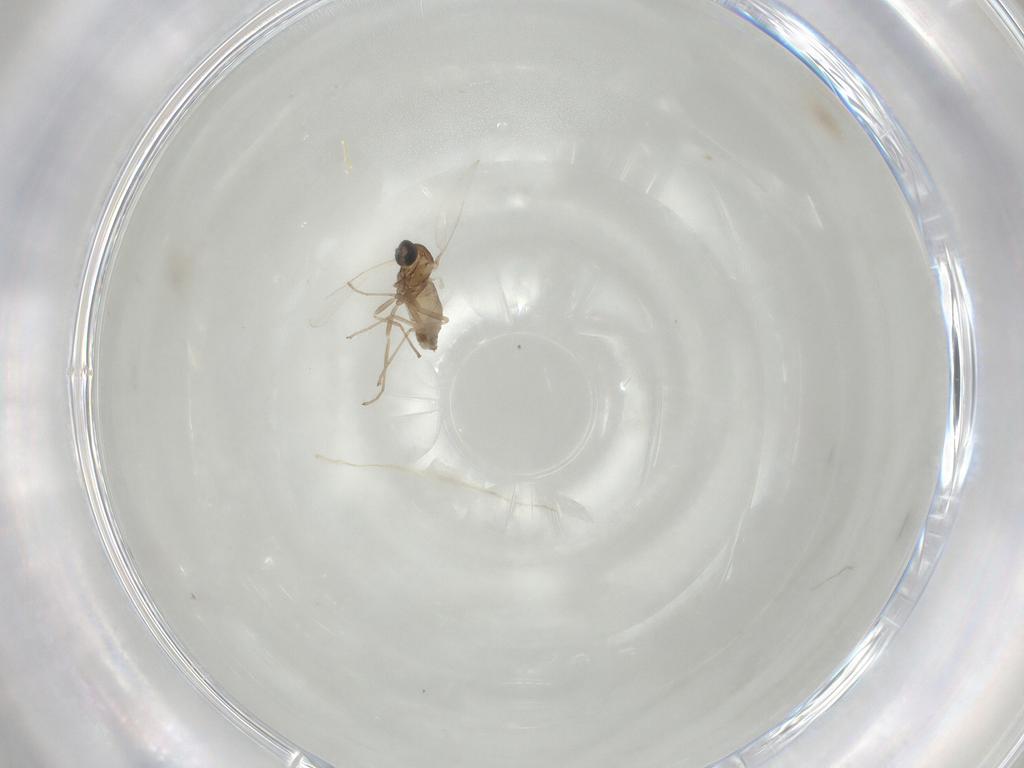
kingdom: Animalia
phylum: Arthropoda
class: Insecta
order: Diptera
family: Cecidomyiidae
